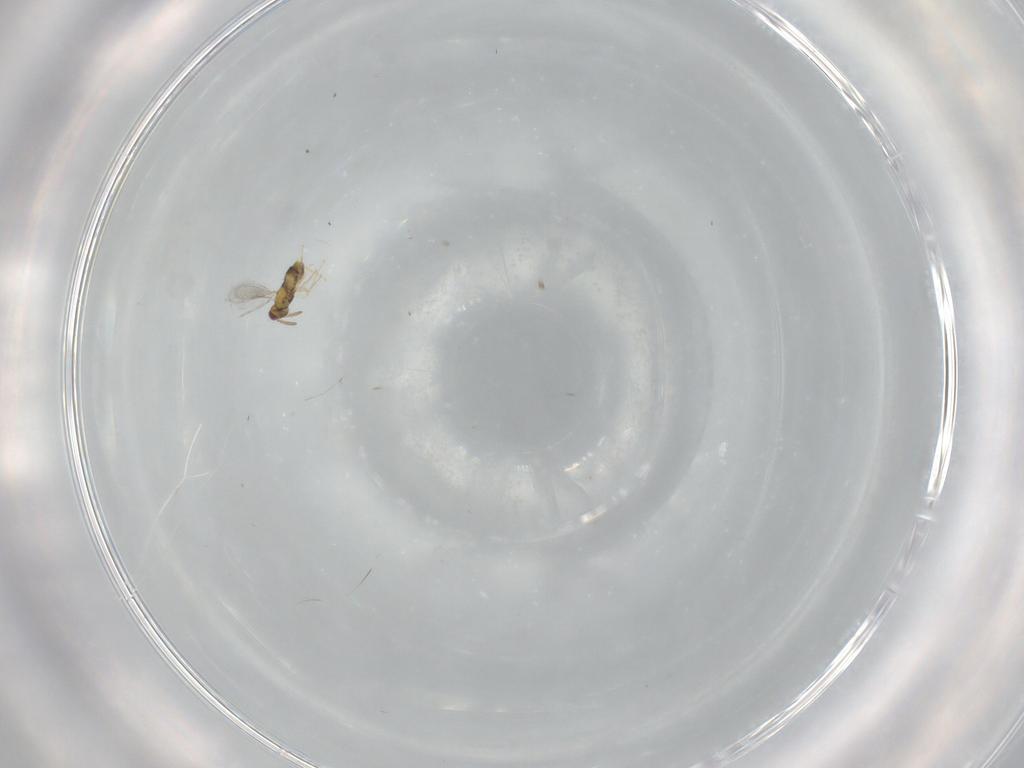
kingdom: Animalia
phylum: Arthropoda
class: Insecta
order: Hymenoptera
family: Aphelinidae
